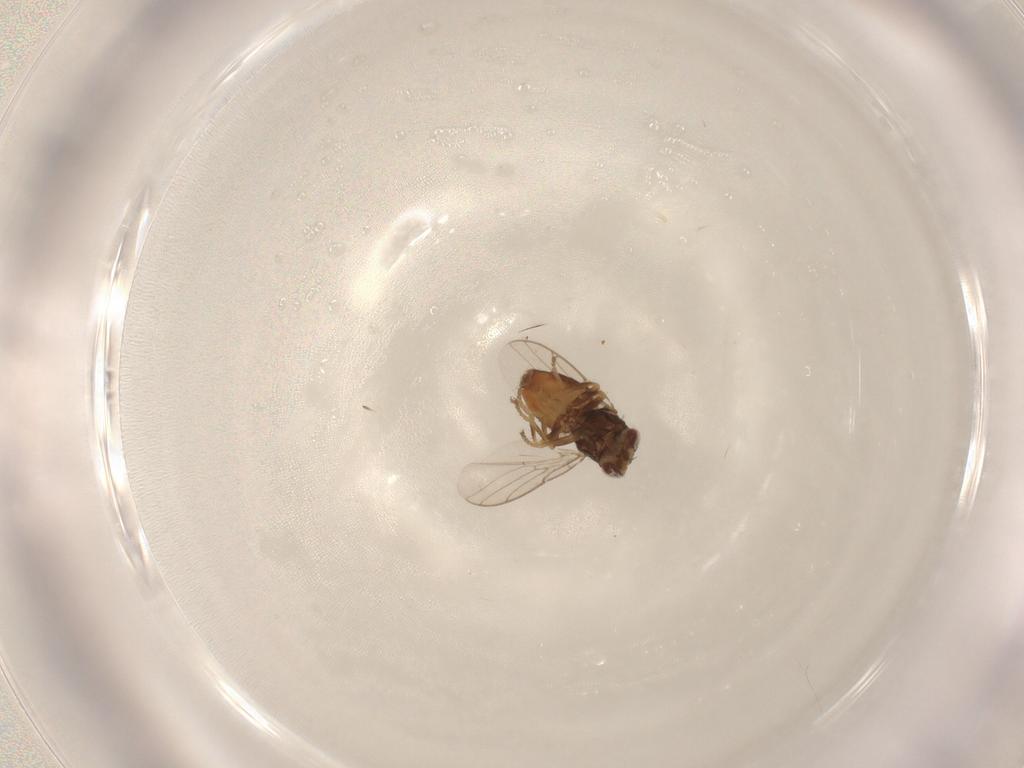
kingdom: Animalia
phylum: Arthropoda
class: Insecta
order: Diptera
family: Chloropidae
